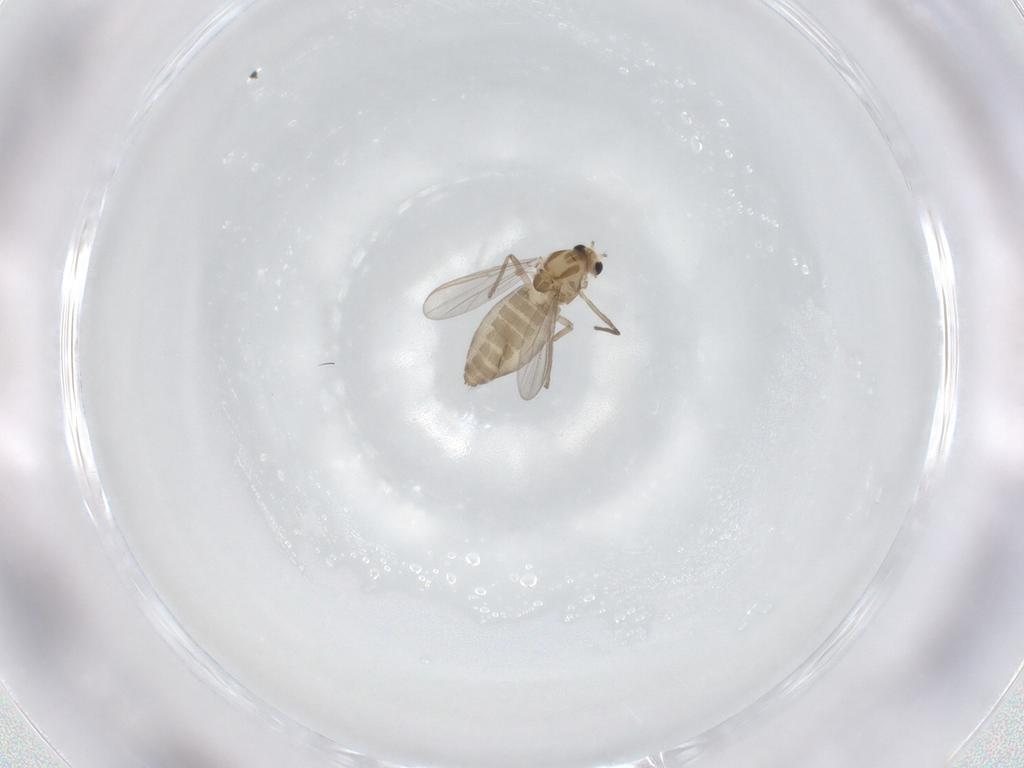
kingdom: Animalia
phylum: Arthropoda
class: Insecta
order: Diptera
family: Chironomidae
